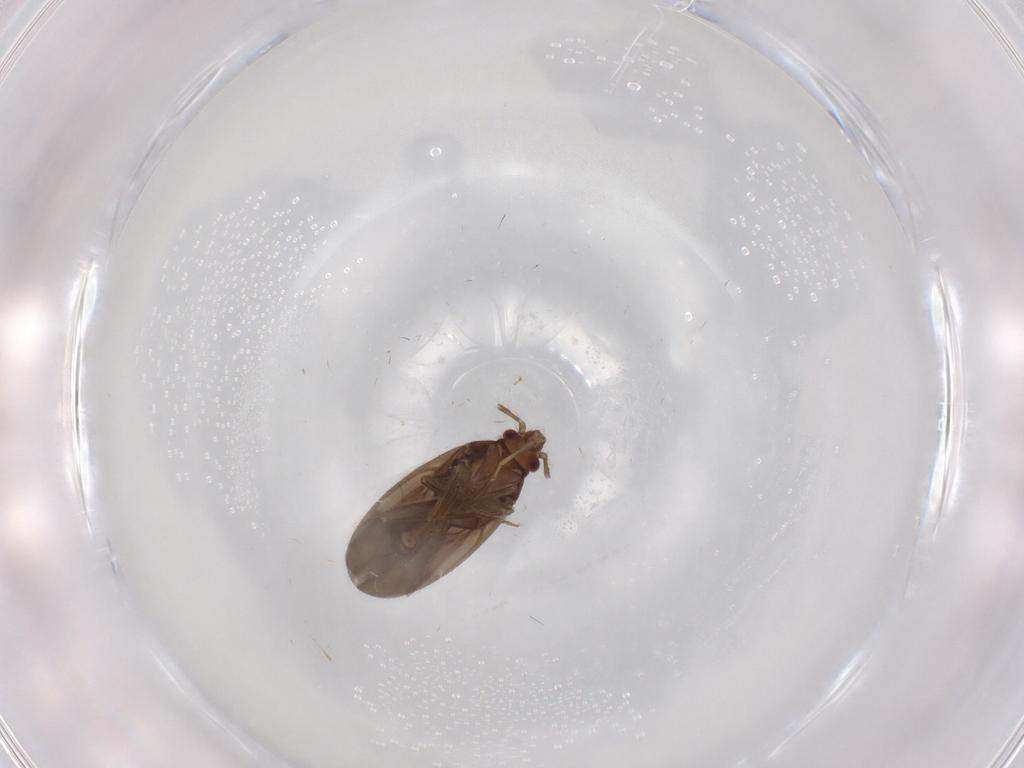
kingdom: Animalia
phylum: Arthropoda
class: Insecta
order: Hemiptera
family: Ceratocombidae
